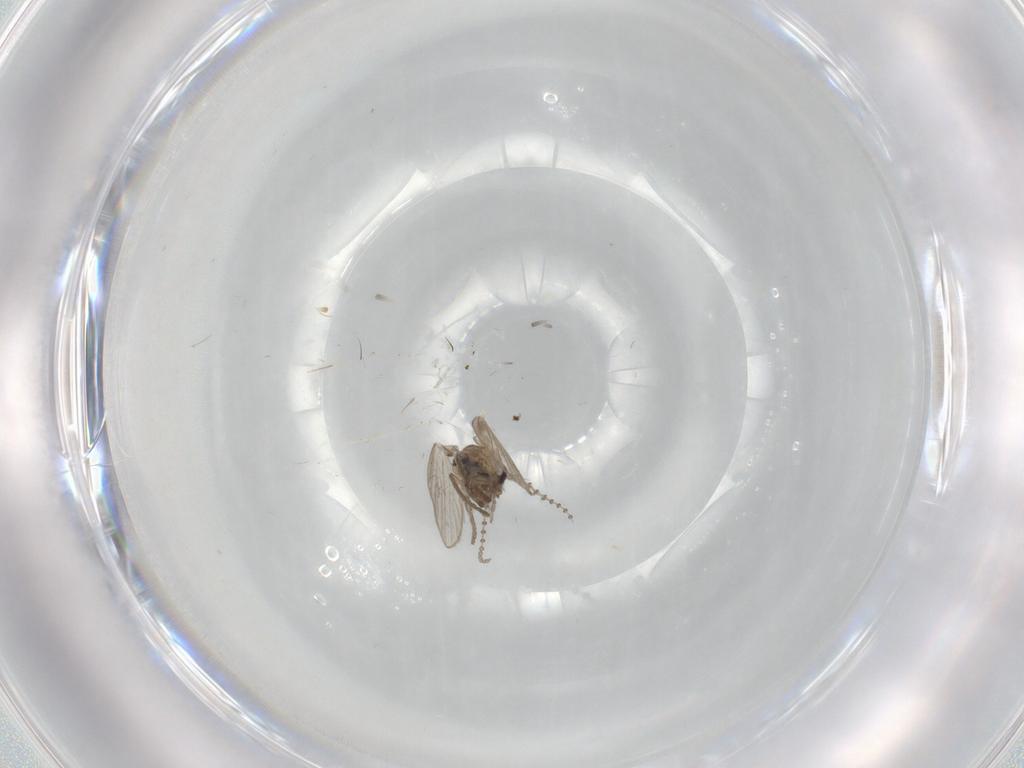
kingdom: Animalia
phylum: Arthropoda
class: Insecta
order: Diptera
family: Psychodidae
